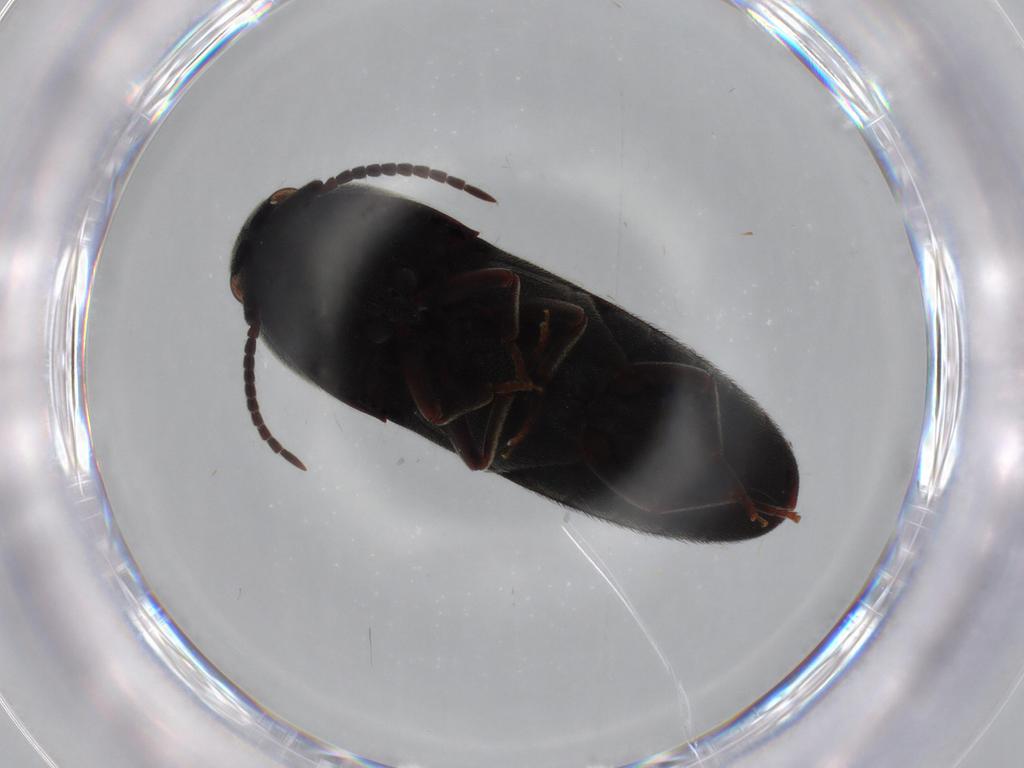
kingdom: Animalia
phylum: Arthropoda
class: Insecta
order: Coleoptera
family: Eucnemidae
